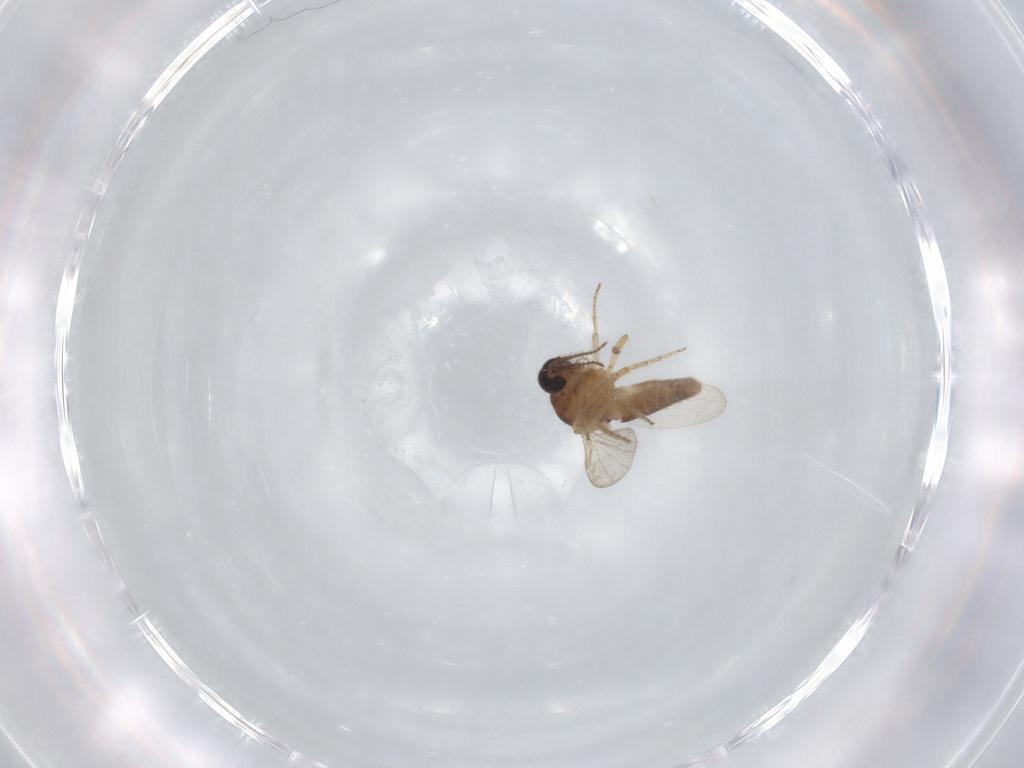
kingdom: Animalia
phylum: Arthropoda
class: Insecta
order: Diptera
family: Ceratopogonidae
